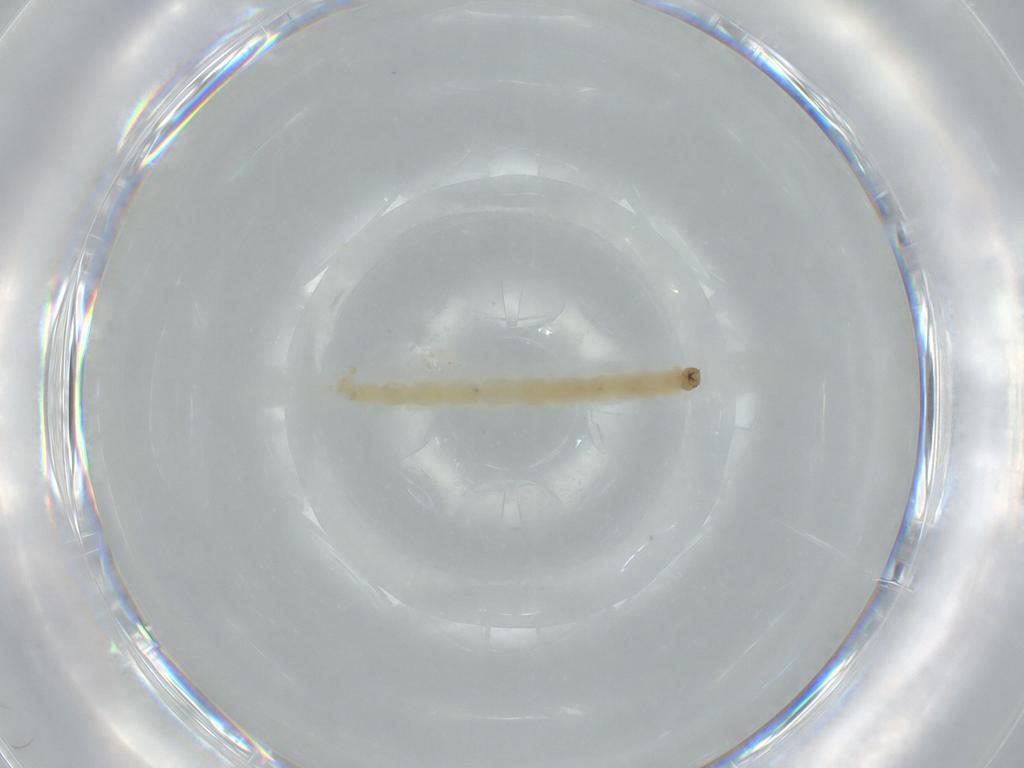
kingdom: Animalia
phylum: Arthropoda
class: Insecta
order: Diptera
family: Chironomidae
